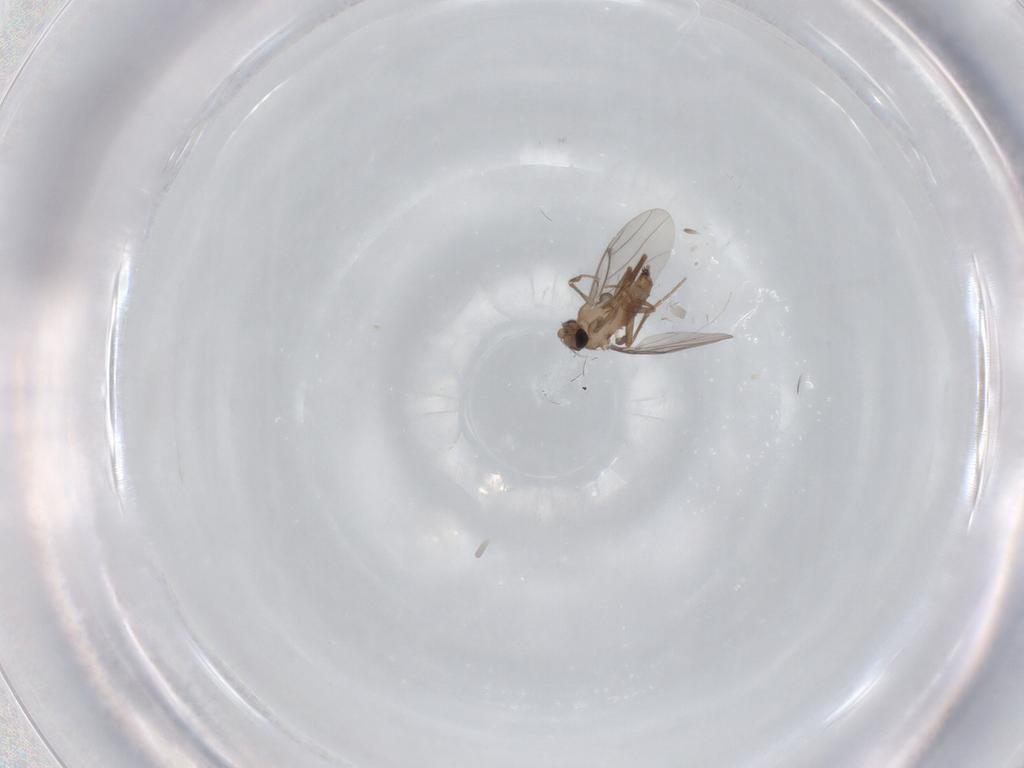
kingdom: Animalia
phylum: Arthropoda
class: Insecta
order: Diptera
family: Cecidomyiidae
